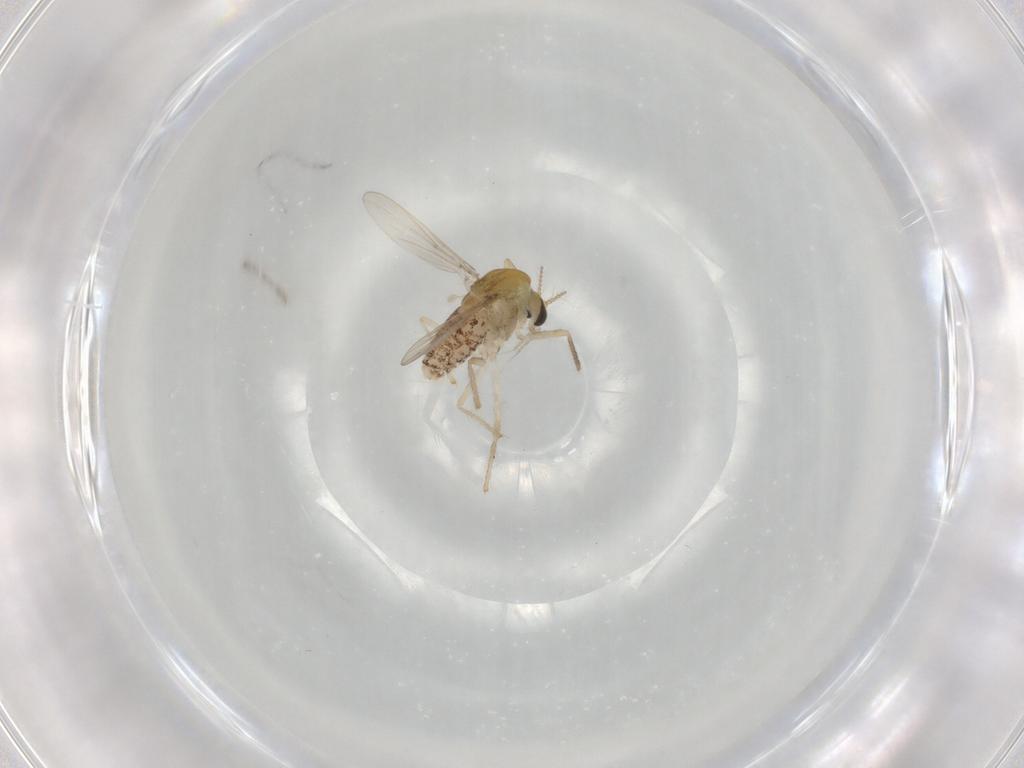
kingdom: Animalia
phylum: Arthropoda
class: Insecta
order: Diptera
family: Chironomidae
